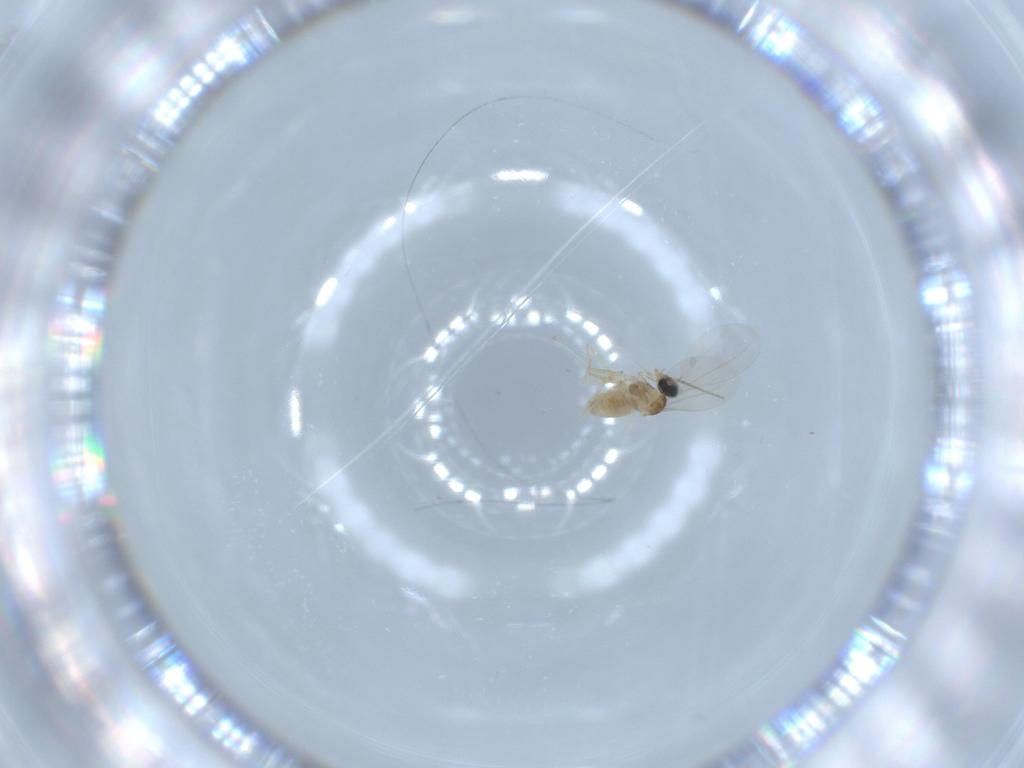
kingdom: Animalia
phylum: Arthropoda
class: Insecta
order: Diptera
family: Cecidomyiidae
